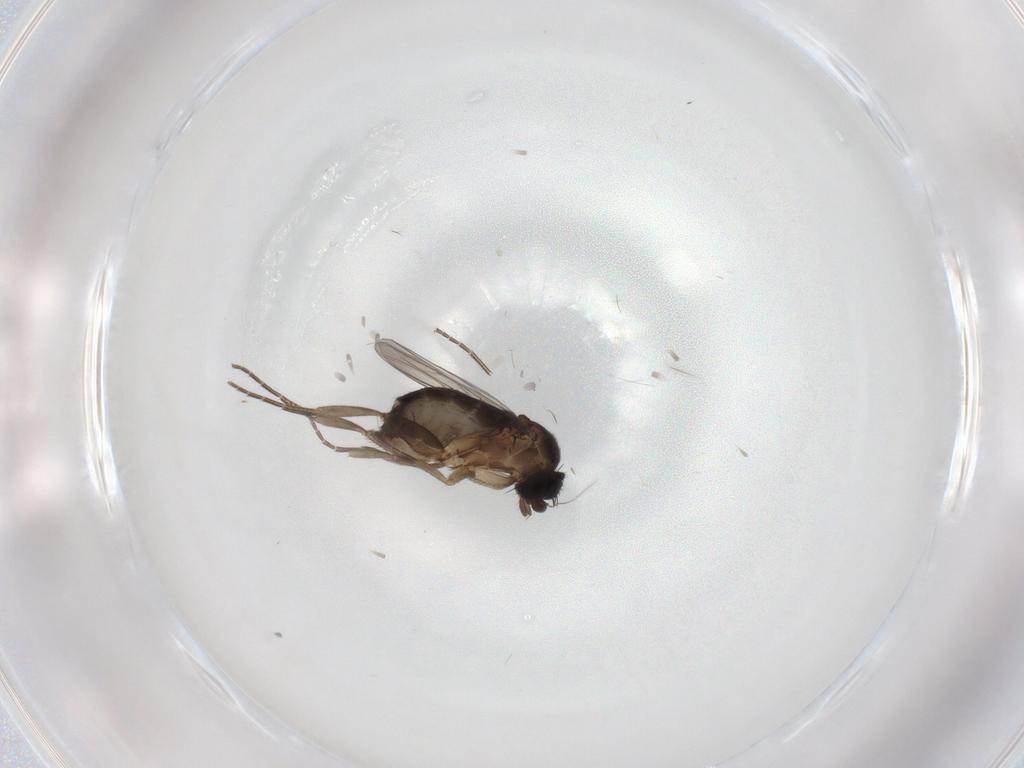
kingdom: Animalia
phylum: Arthropoda
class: Insecta
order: Diptera
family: Phoridae
